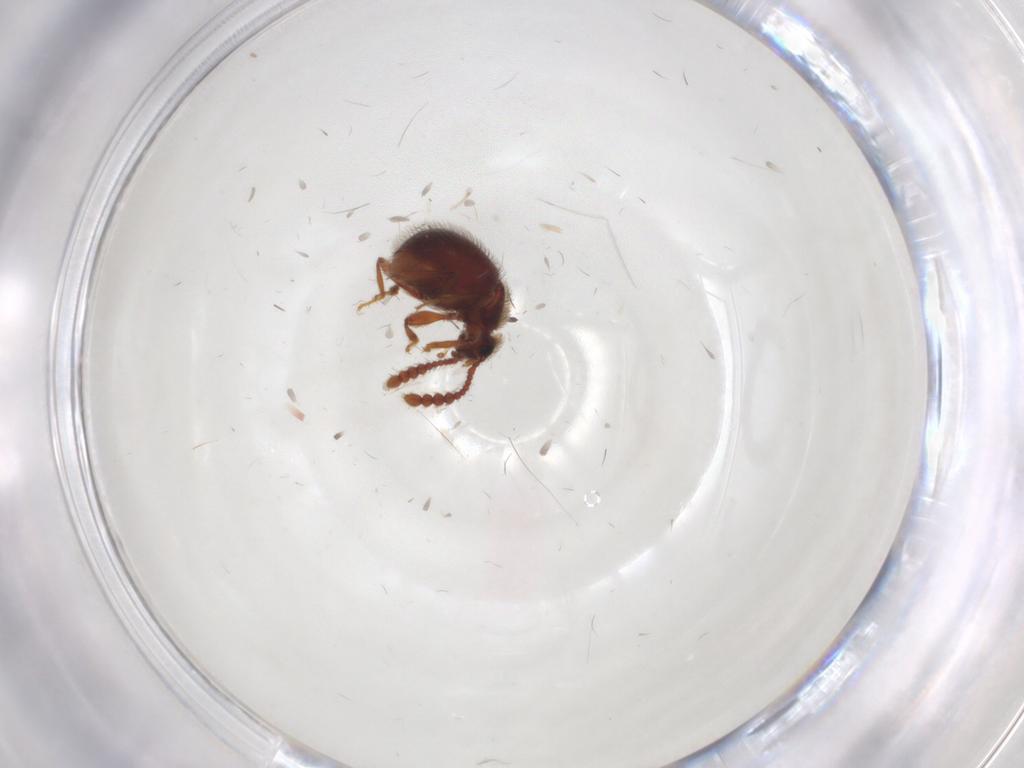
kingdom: Animalia
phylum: Arthropoda
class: Insecta
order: Coleoptera
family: Staphylinidae
